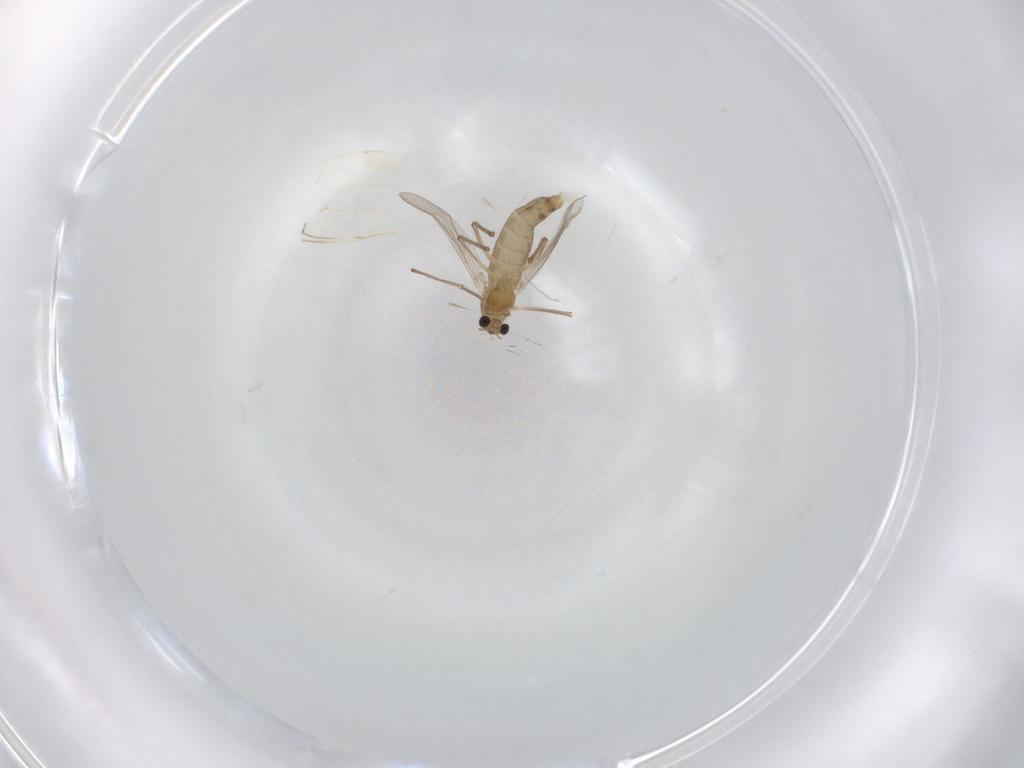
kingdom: Animalia
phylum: Arthropoda
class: Insecta
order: Diptera
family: Chironomidae
